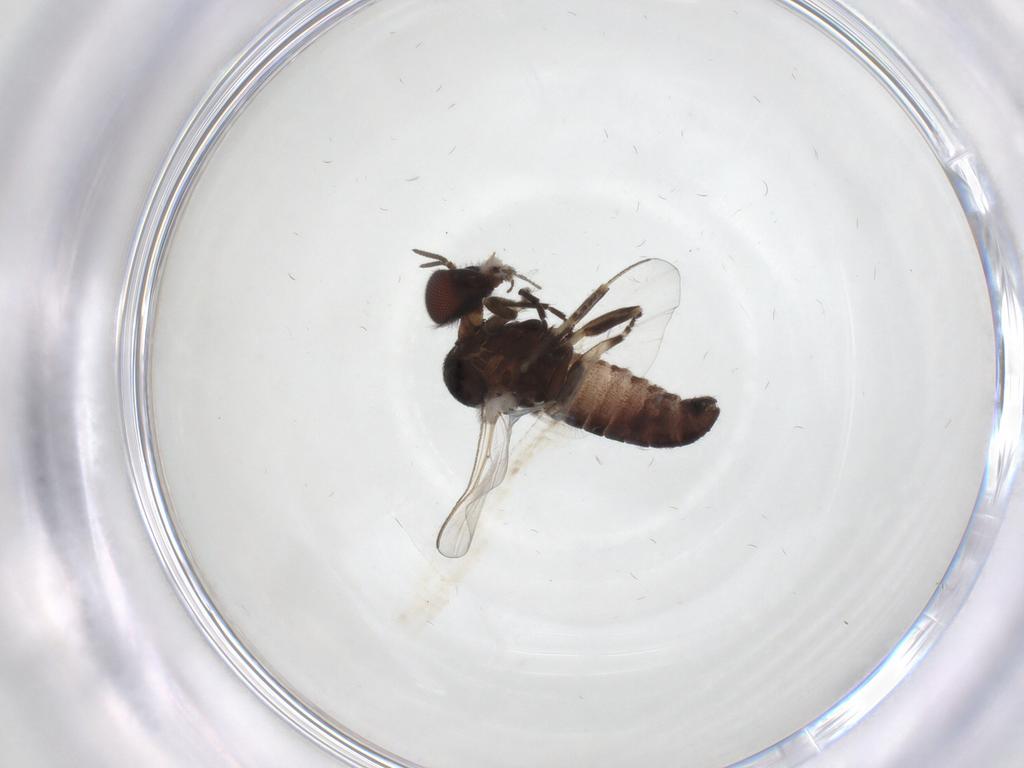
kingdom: Animalia
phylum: Arthropoda
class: Insecta
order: Diptera
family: Simuliidae
